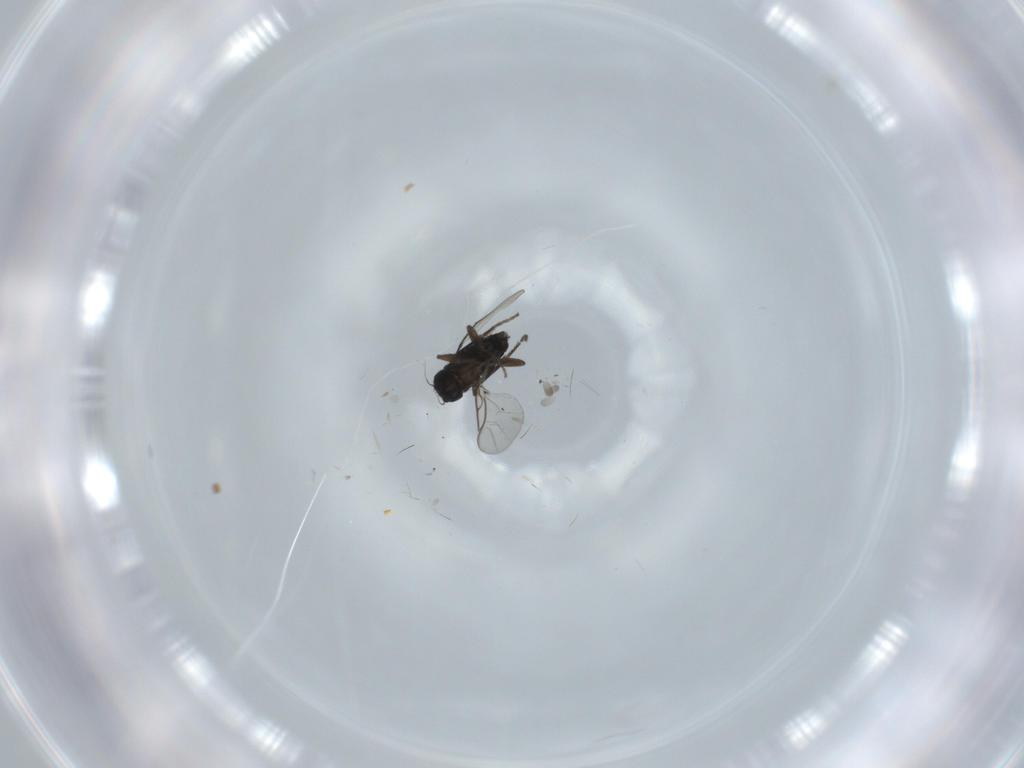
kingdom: Animalia
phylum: Arthropoda
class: Insecta
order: Diptera
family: Phoridae
